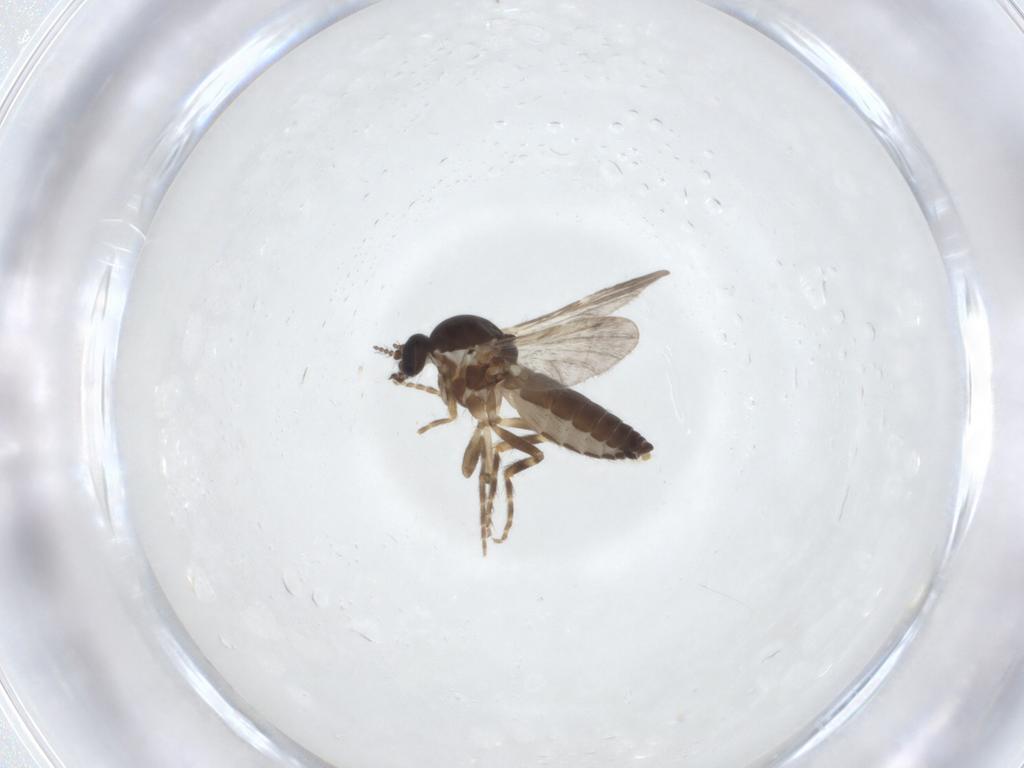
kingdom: Animalia
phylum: Arthropoda
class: Insecta
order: Diptera
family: Ceratopogonidae
